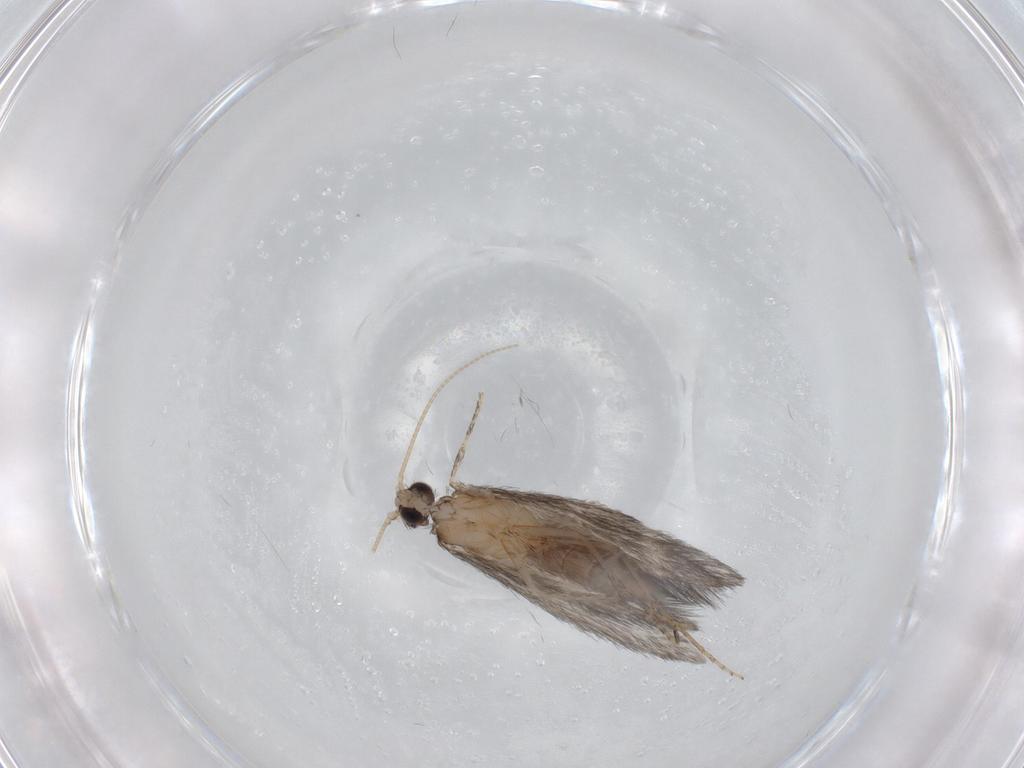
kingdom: Animalia
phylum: Arthropoda
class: Insecta
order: Trichoptera
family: Hydroptilidae
